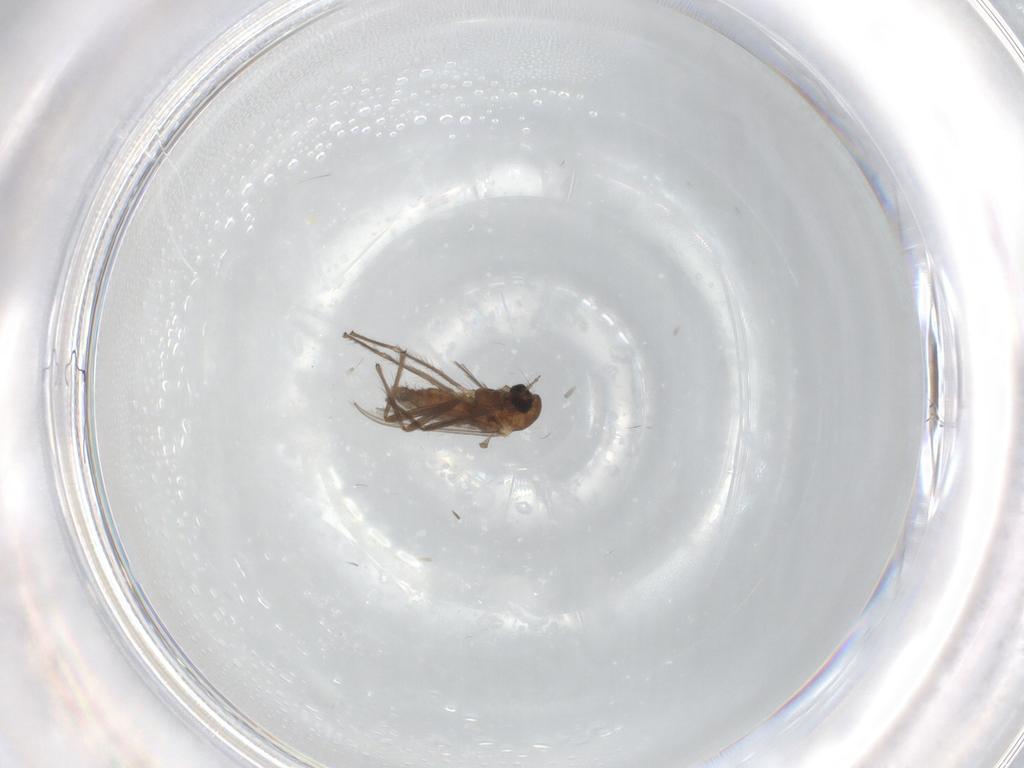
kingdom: Animalia
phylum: Arthropoda
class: Insecta
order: Diptera
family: Chironomidae
